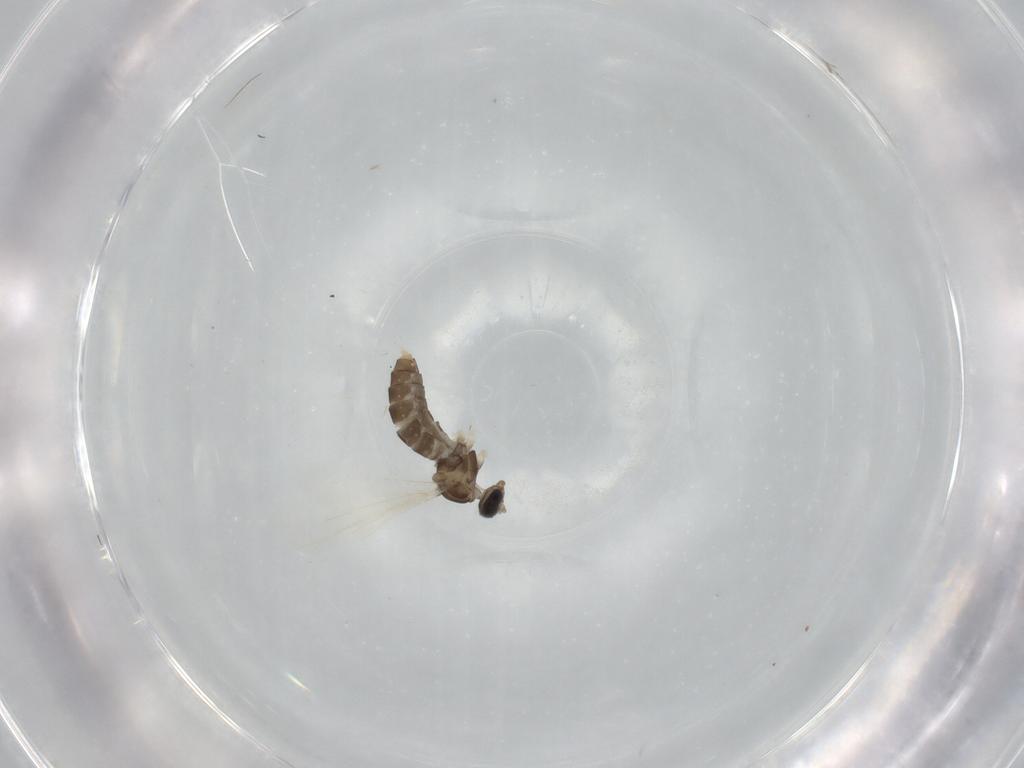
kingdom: Animalia
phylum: Arthropoda
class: Insecta
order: Diptera
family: Cecidomyiidae
